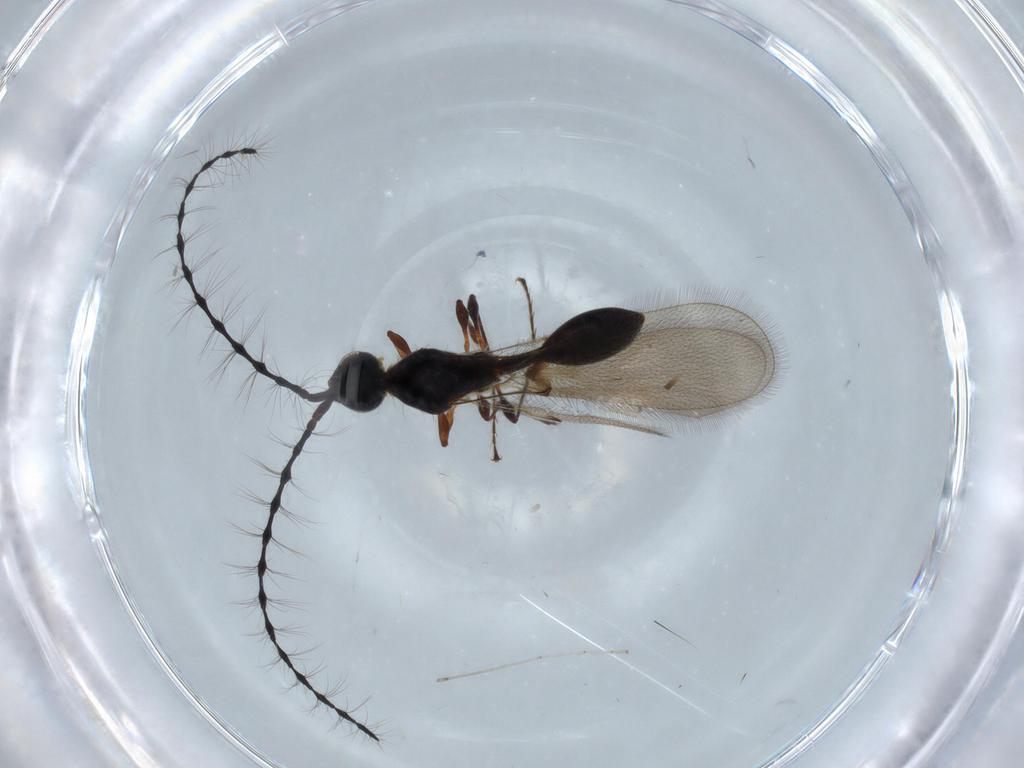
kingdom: Animalia
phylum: Arthropoda
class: Insecta
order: Hymenoptera
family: Diapriidae
